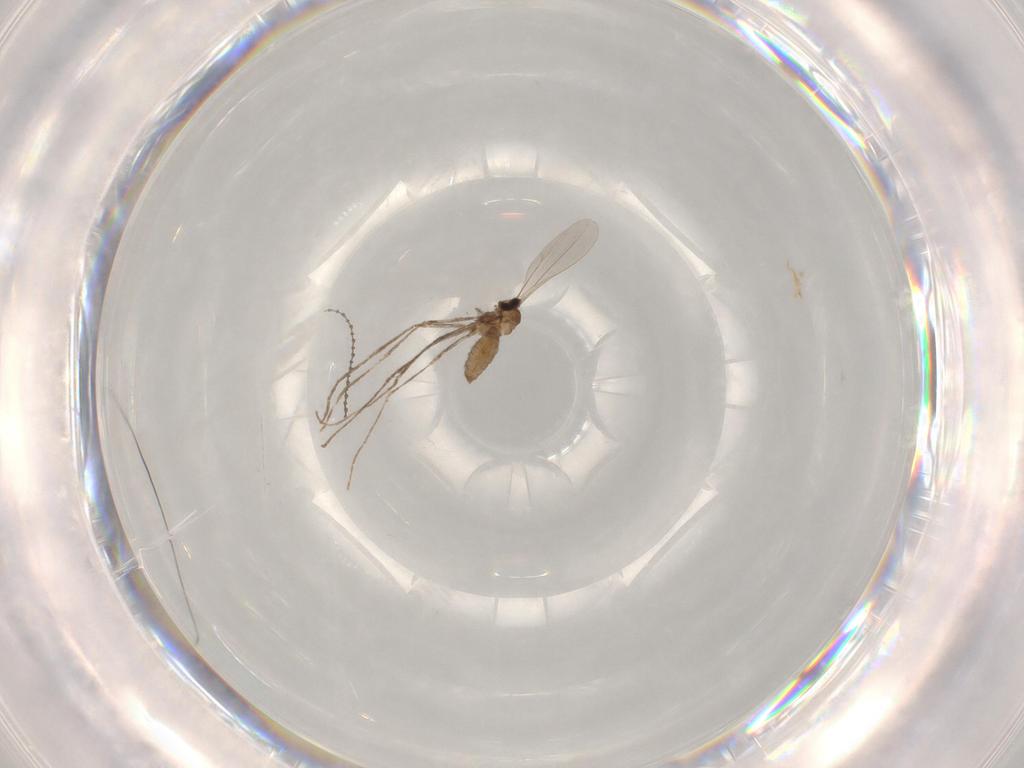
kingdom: Animalia
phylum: Arthropoda
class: Insecta
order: Diptera
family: Cecidomyiidae
